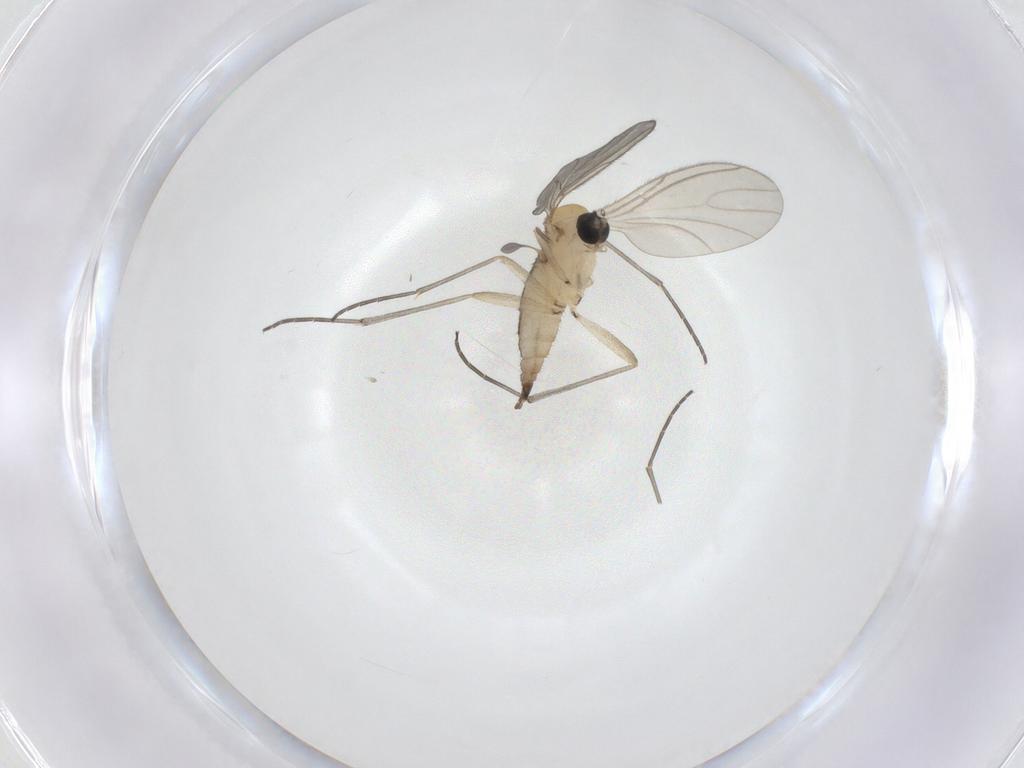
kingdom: Animalia
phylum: Arthropoda
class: Insecta
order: Diptera
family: Sciaridae
